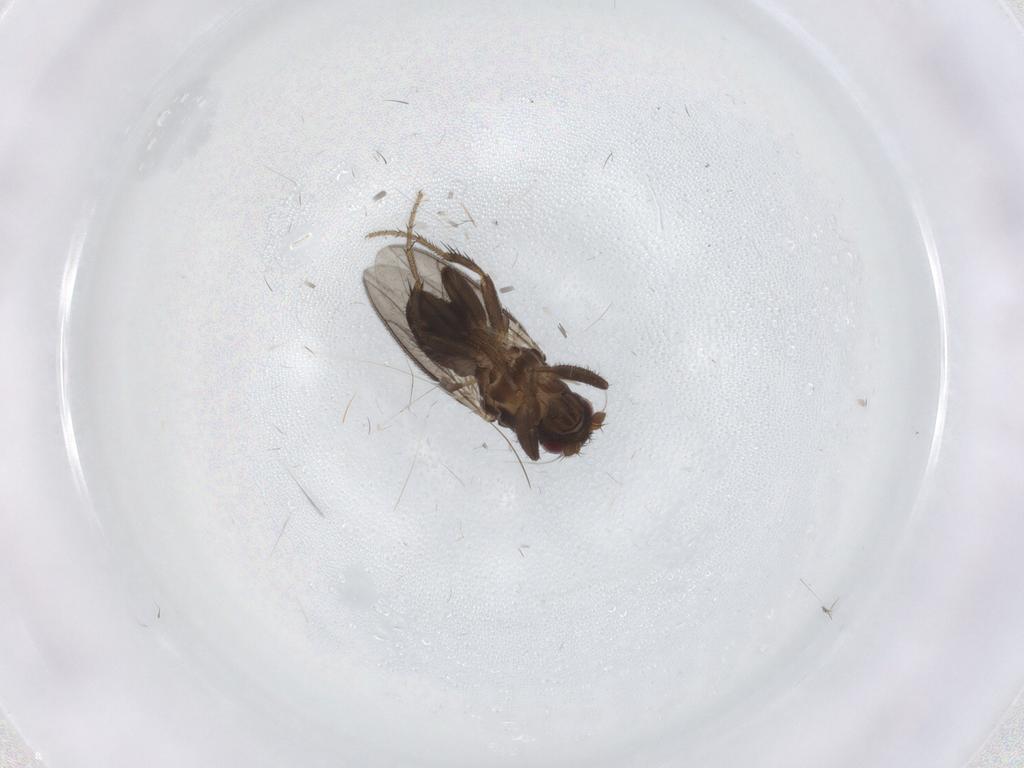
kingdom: Animalia
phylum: Arthropoda
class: Insecta
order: Diptera
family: Sphaeroceridae
